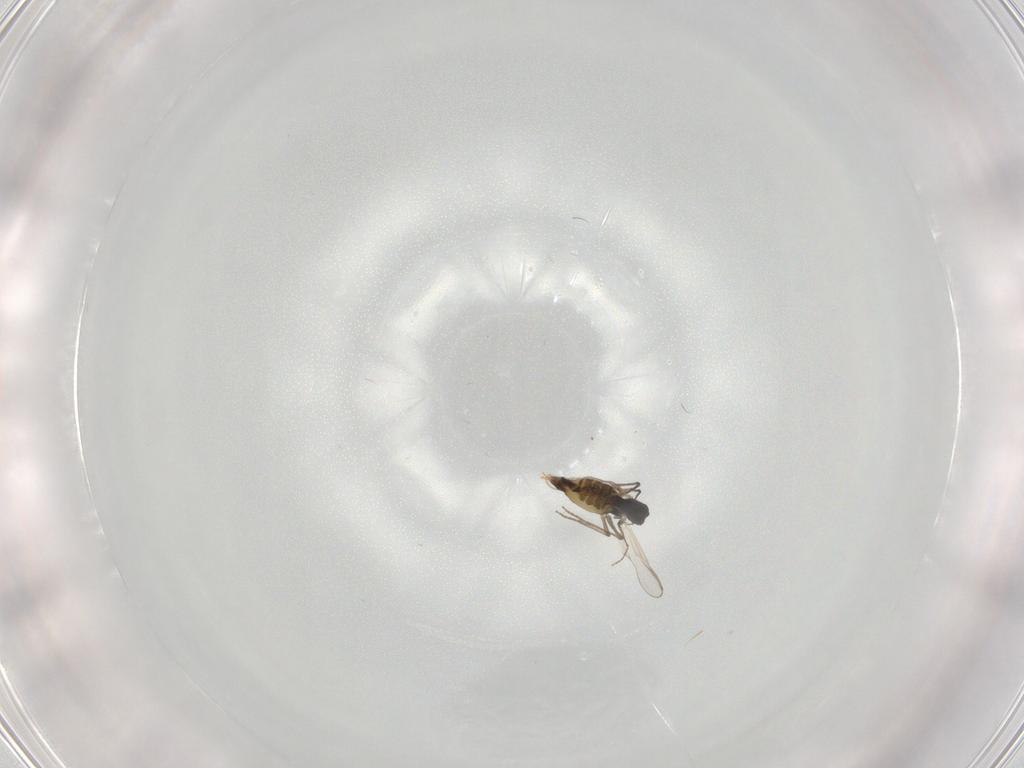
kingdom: Animalia
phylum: Arthropoda
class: Insecta
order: Diptera
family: Chironomidae
